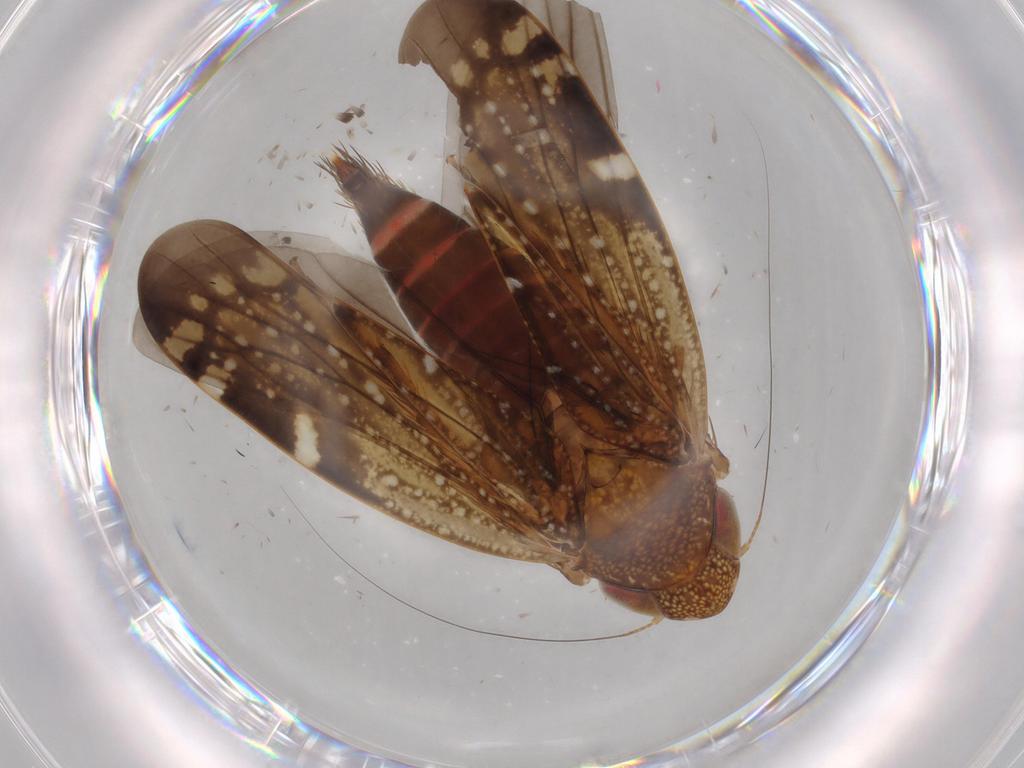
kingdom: Animalia
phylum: Arthropoda
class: Insecta
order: Hemiptera
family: Cicadellidae
